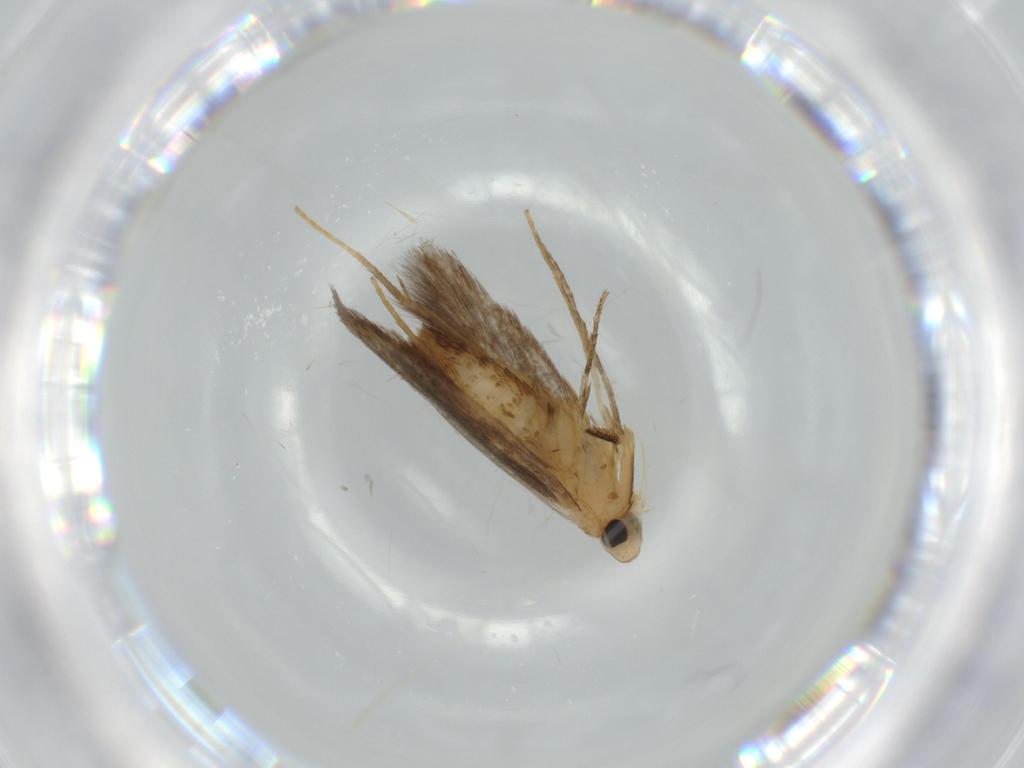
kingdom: Animalia
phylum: Arthropoda
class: Insecta
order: Lepidoptera
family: Tischeriidae
